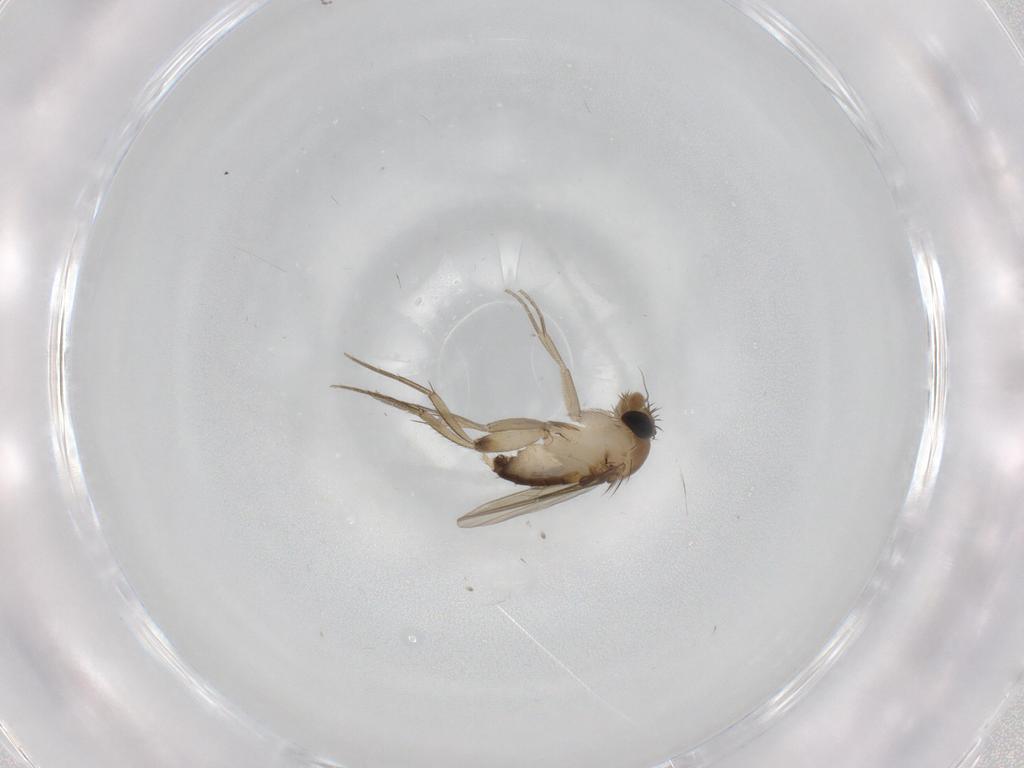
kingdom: Animalia
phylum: Arthropoda
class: Insecta
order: Diptera
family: Phoridae
